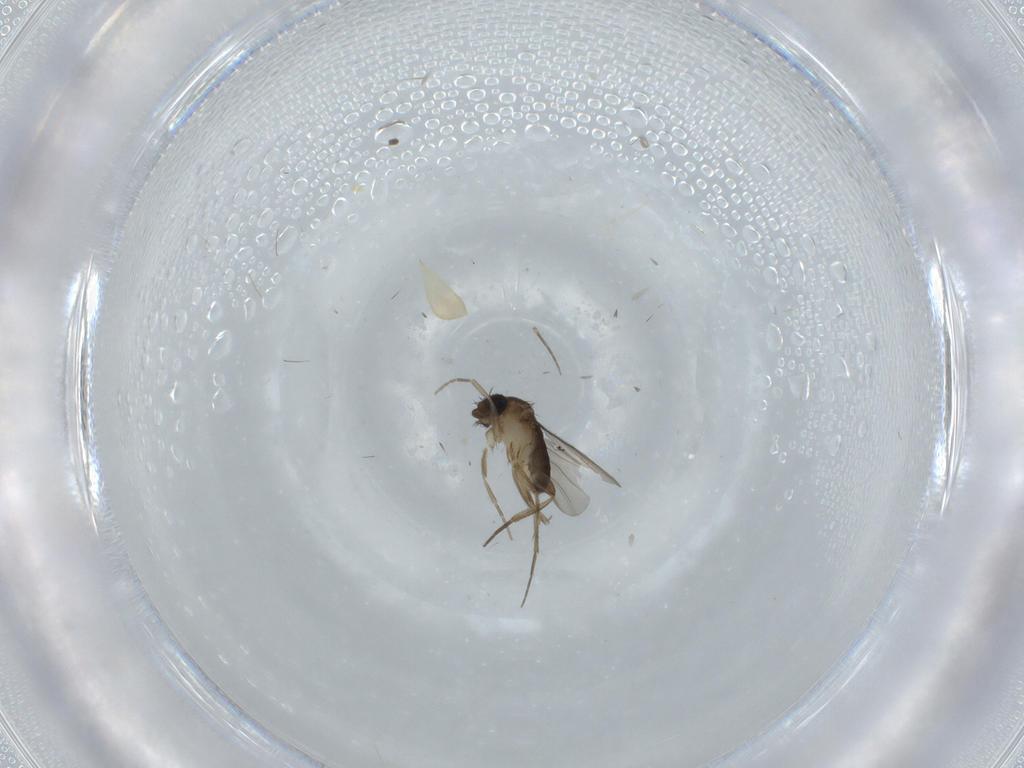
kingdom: Animalia
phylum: Arthropoda
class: Insecta
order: Diptera
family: Phoridae
